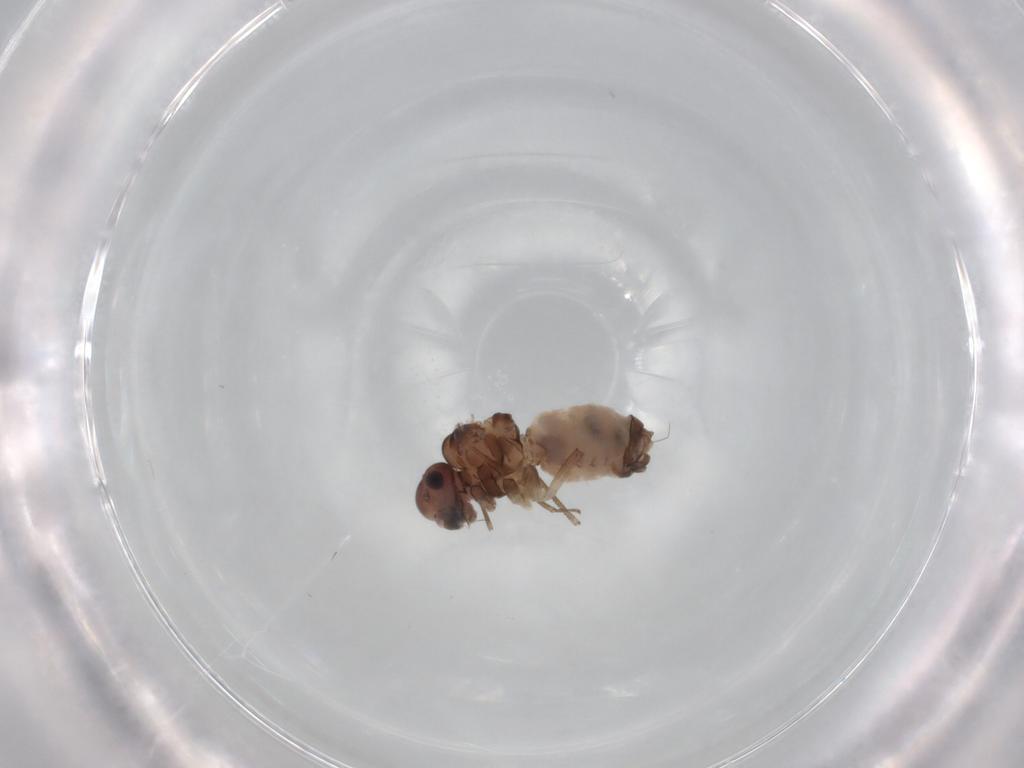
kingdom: Animalia
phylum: Arthropoda
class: Insecta
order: Psocodea
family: Peripsocidae
